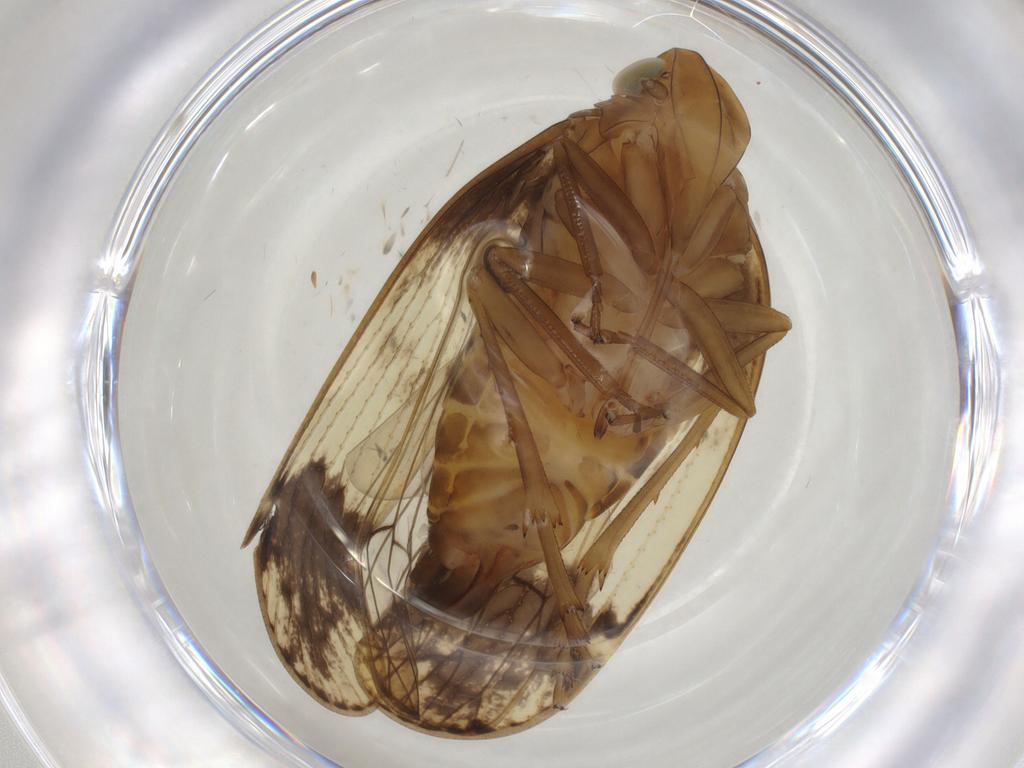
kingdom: Animalia
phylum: Arthropoda
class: Insecta
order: Hemiptera
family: Cixiidae
